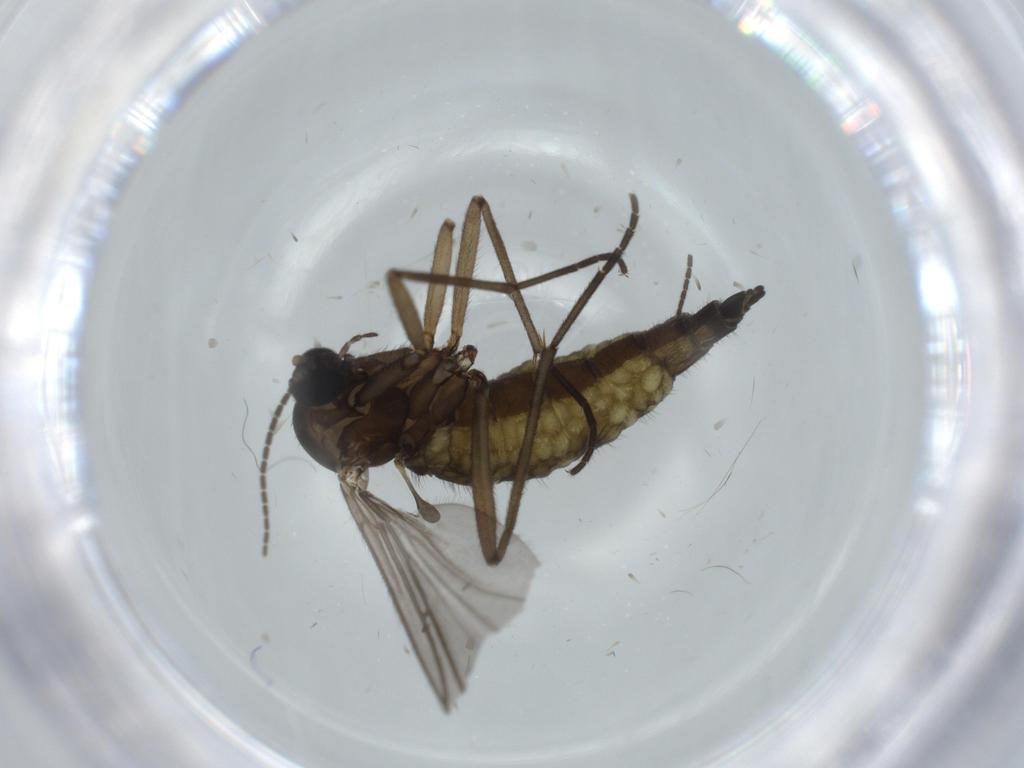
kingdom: Animalia
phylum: Arthropoda
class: Insecta
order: Diptera
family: Sciaridae
